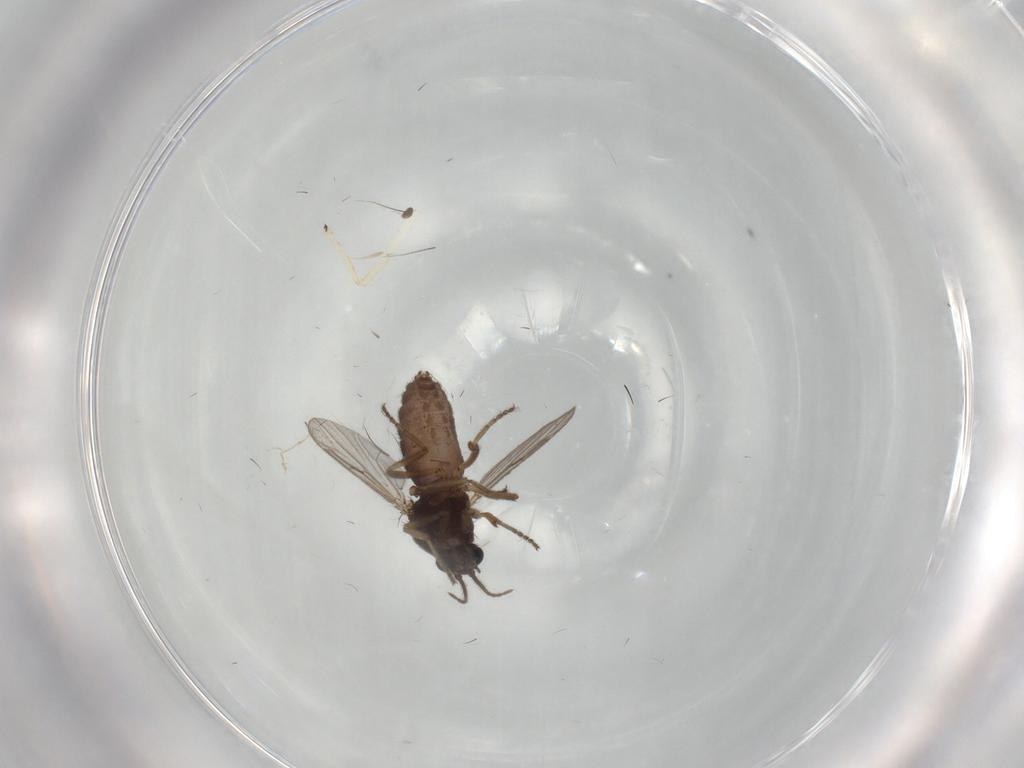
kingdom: Animalia
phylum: Arthropoda
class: Insecta
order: Diptera
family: Ceratopogonidae
